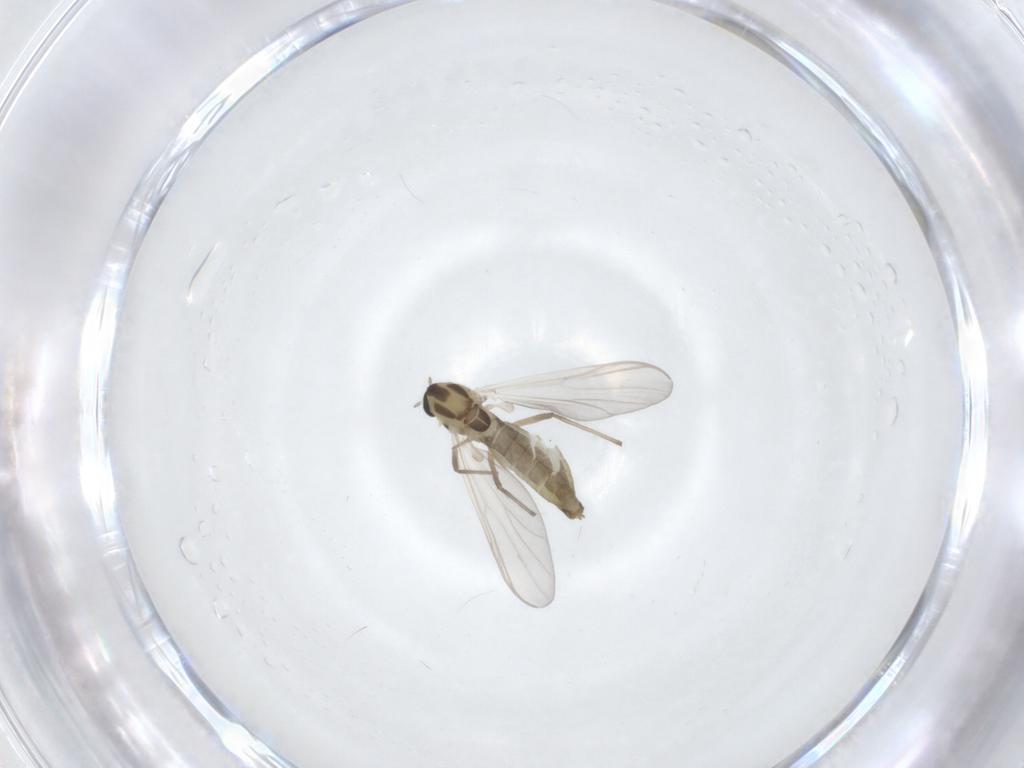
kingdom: Animalia
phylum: Arthropoda
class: Insecta
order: Diptera
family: Chironomidae
